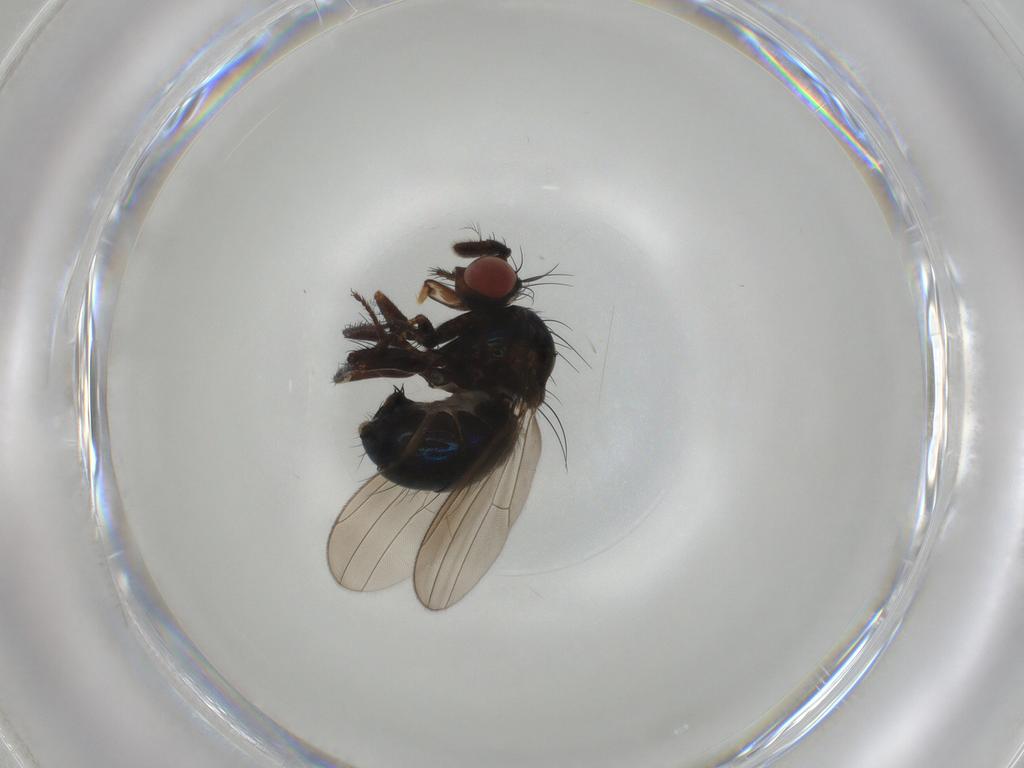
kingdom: Animalia
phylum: Arthropoda
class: Insecta
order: Diptera
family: Ephydridae
